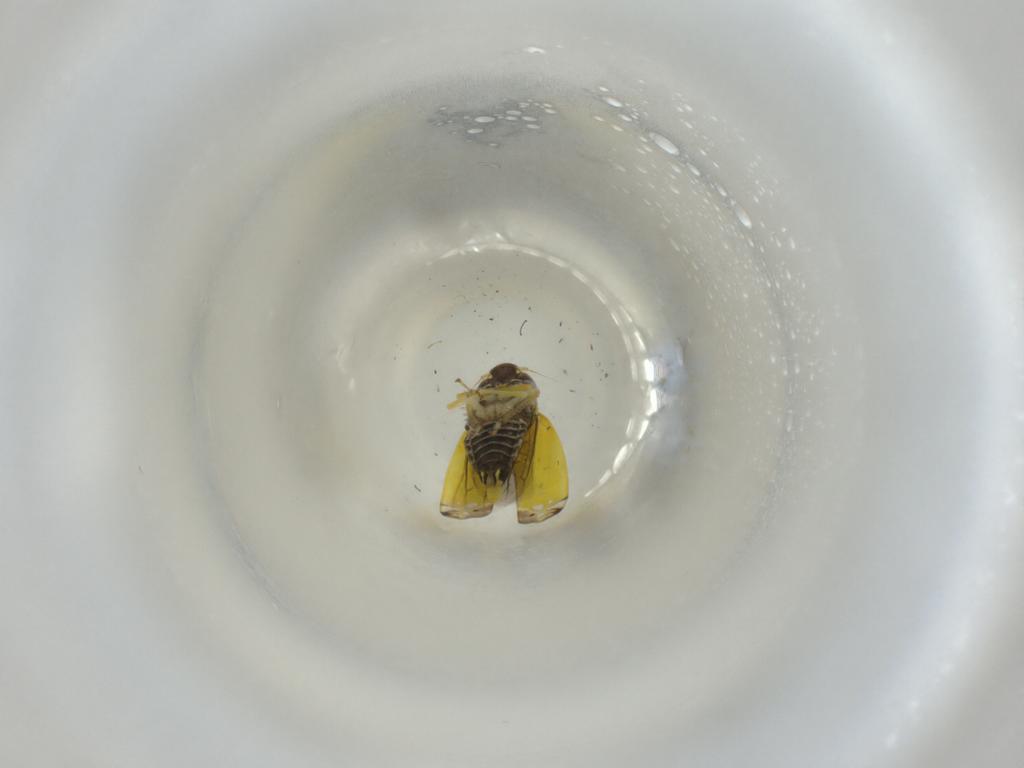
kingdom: Animalia
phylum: Arthropoda
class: Insecta
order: Hemiptera
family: Cicadellidae
